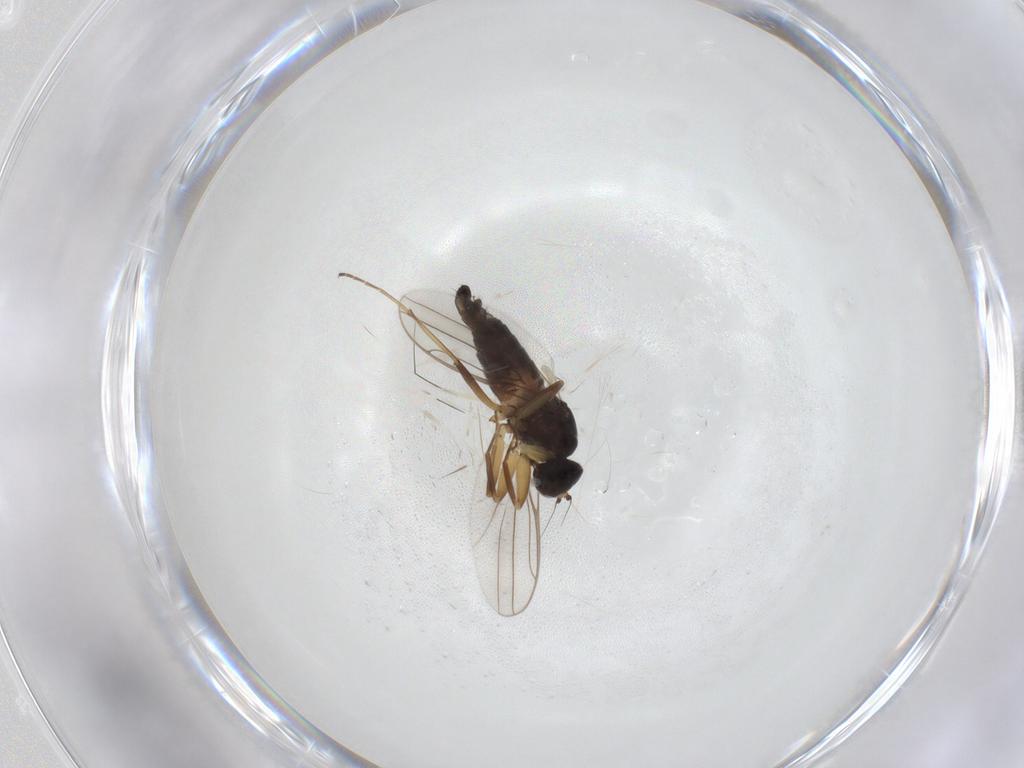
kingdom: Animalia
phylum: Arthropoda
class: Insecta
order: Diptera
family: Hybotidae
